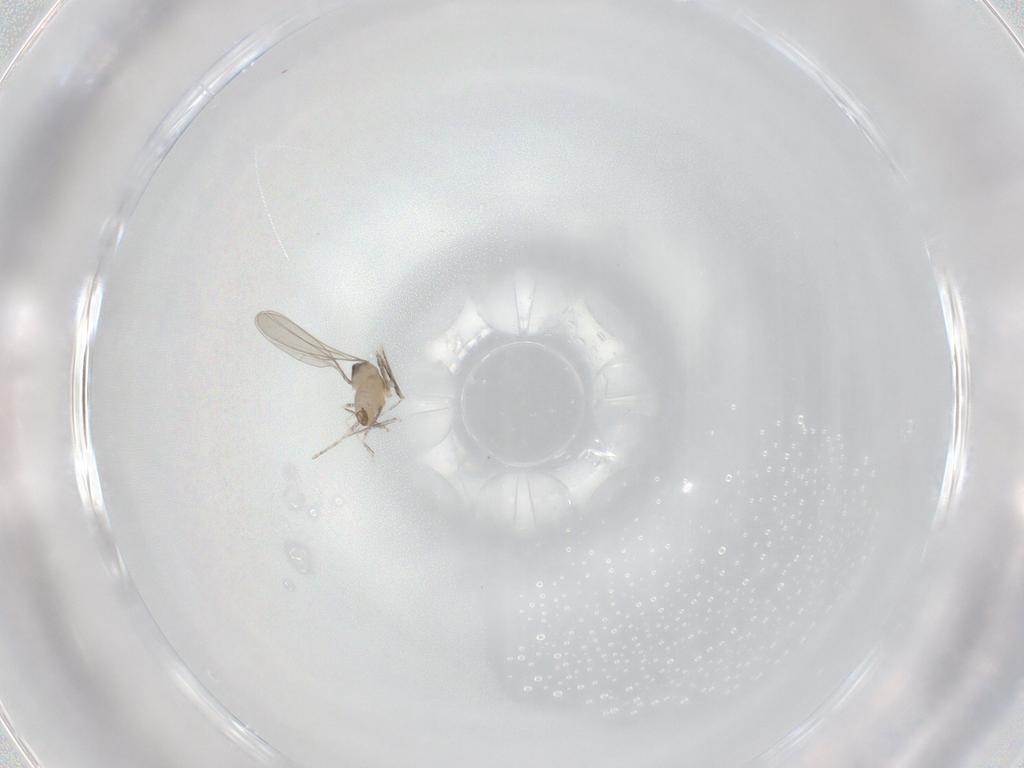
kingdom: Animalia
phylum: Arthropoda
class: Insecta
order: Diptera
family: Cecidomyiidae
